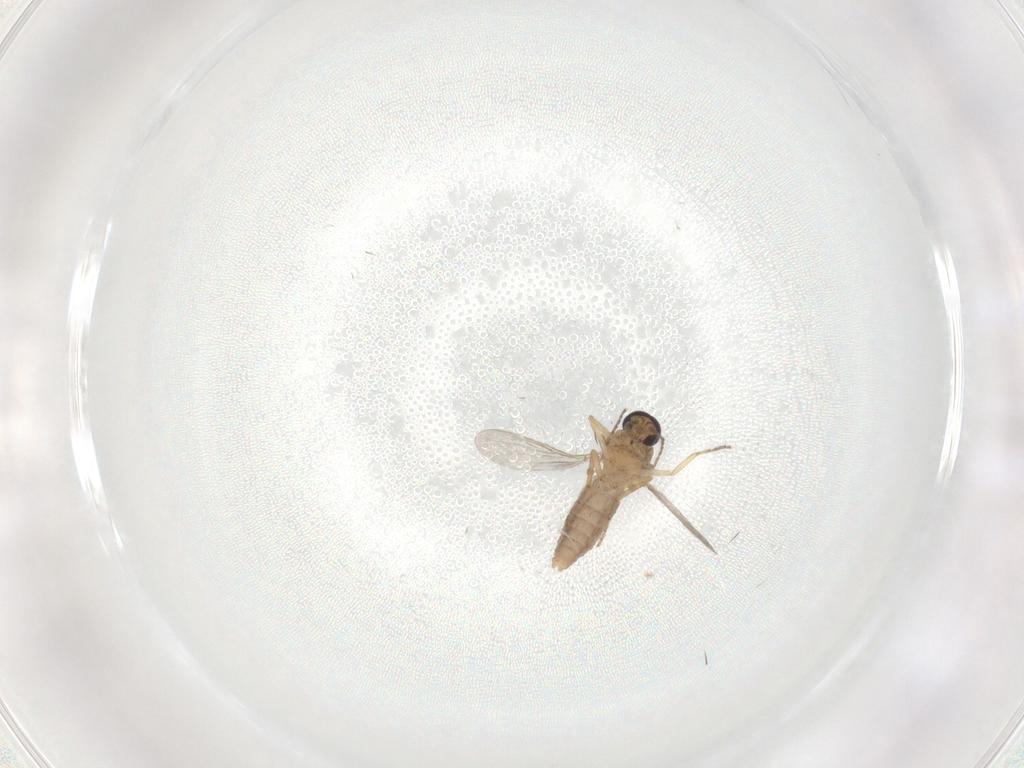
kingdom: Animalia
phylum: Arthropoda
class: Insecta
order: Diptera
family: Ceratopogonidae
